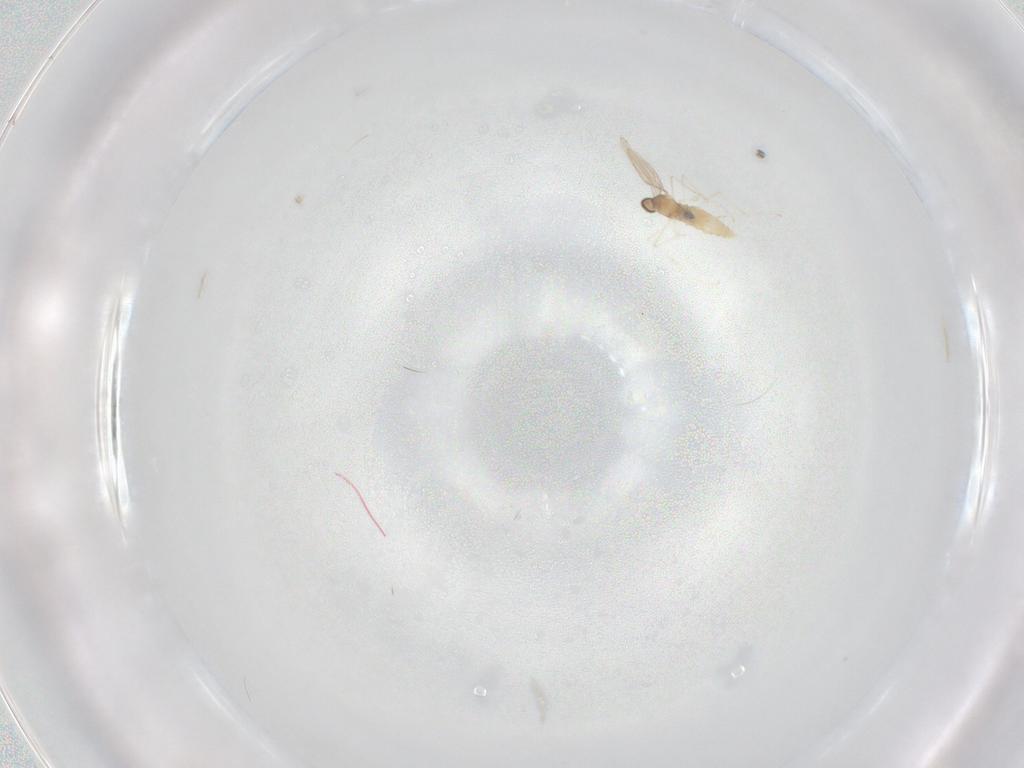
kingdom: Animalia
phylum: Arthropoda
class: Insecta
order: Diptera
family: Cecidomyiidae
